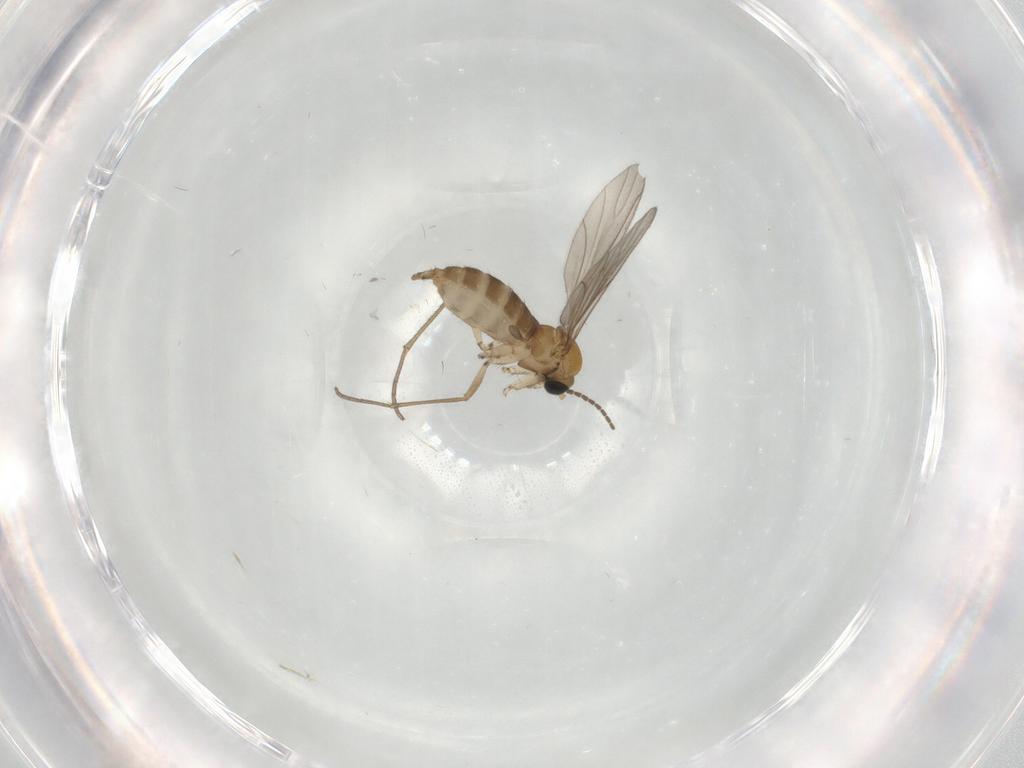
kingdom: Animalia
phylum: Arthropoda
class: Insecta
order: Diptera
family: Sciaridae
